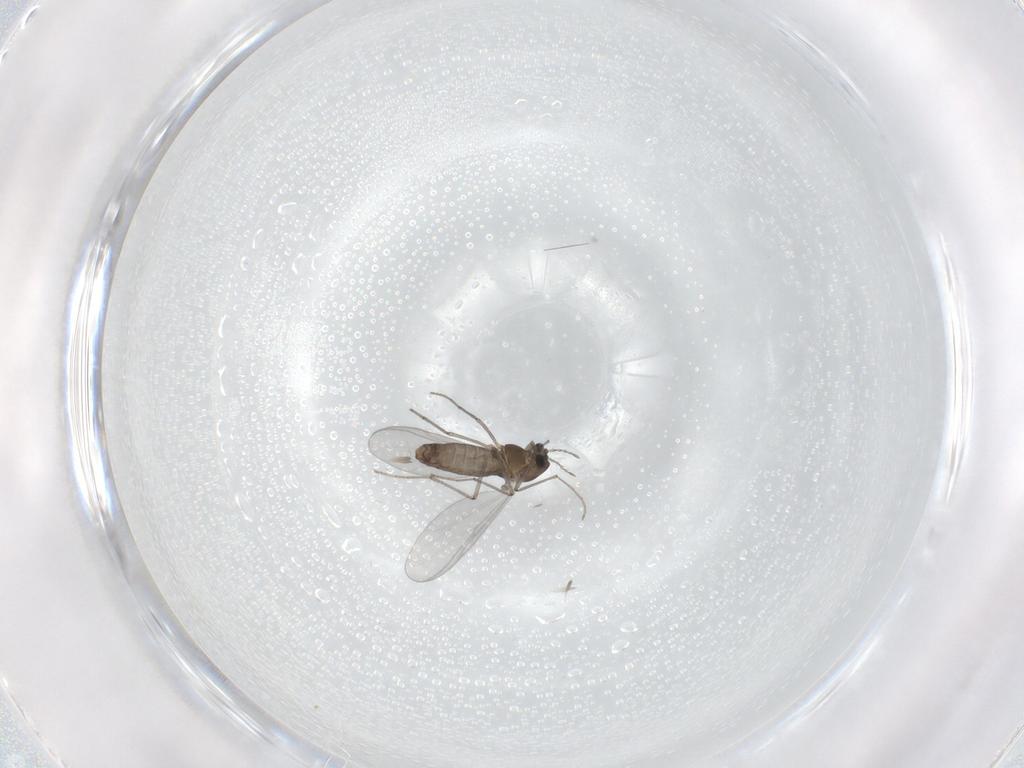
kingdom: Animalia
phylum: Arthropoda
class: Insecta
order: Diptera
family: Chironomidae
